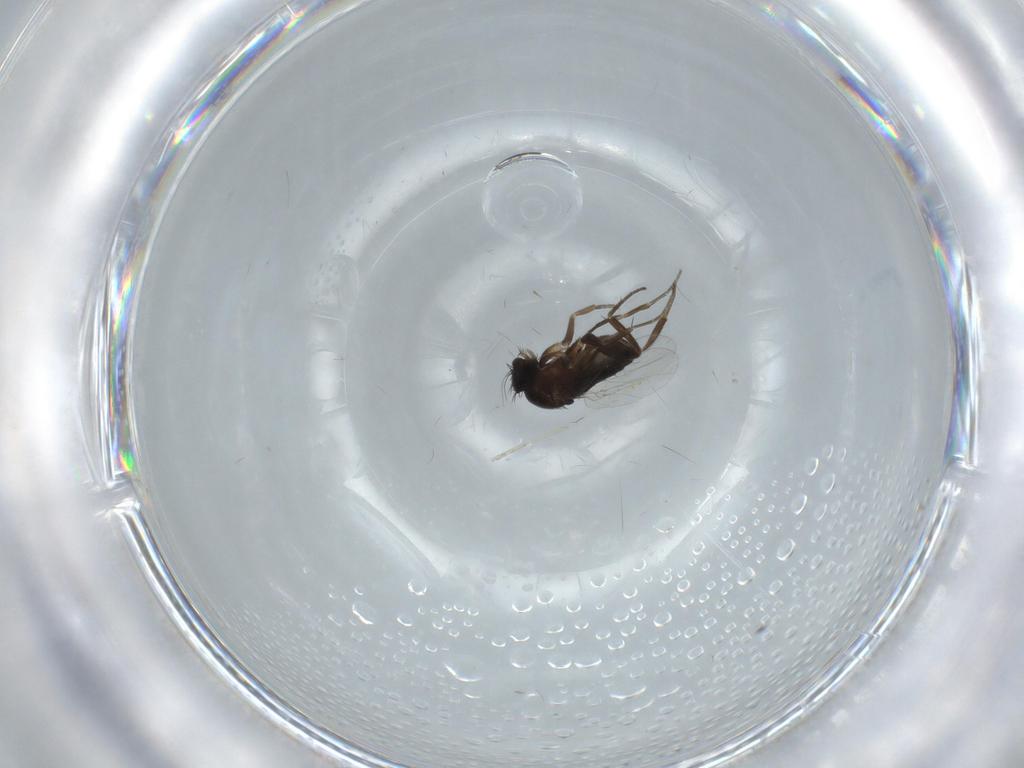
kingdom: Animalia
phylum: Arthropoda
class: Insecta
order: Diptera
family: Phoridae
